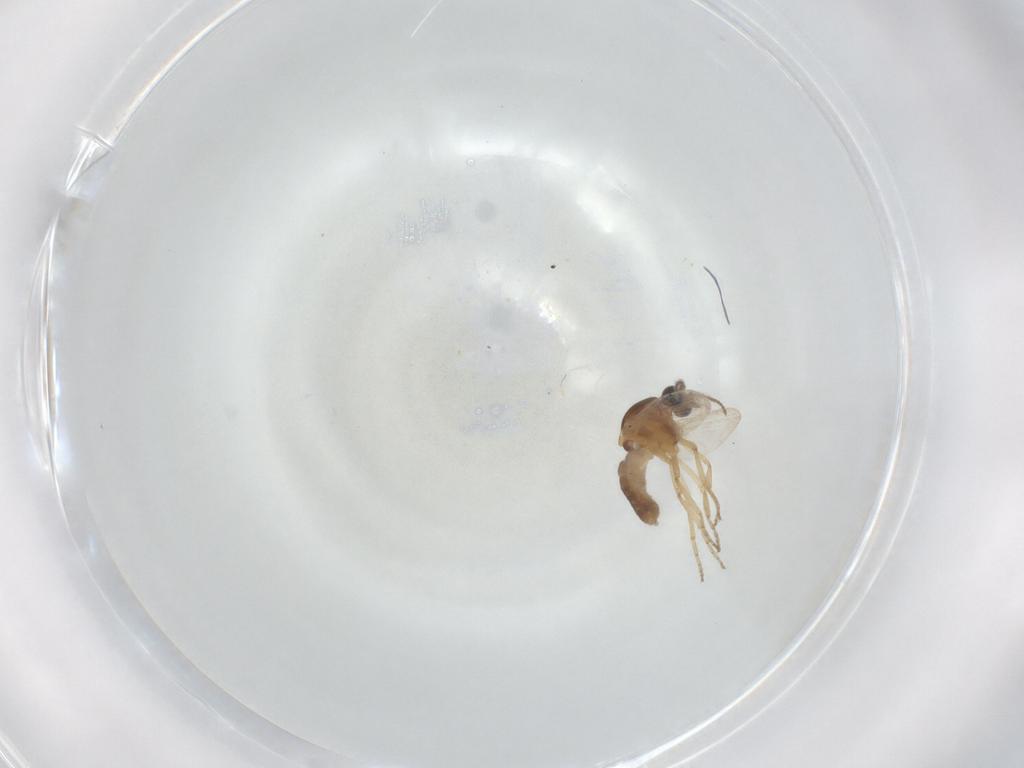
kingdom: Animalia
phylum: Arthropoda
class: Insecta
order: Diptera
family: Ceratopogonidae
